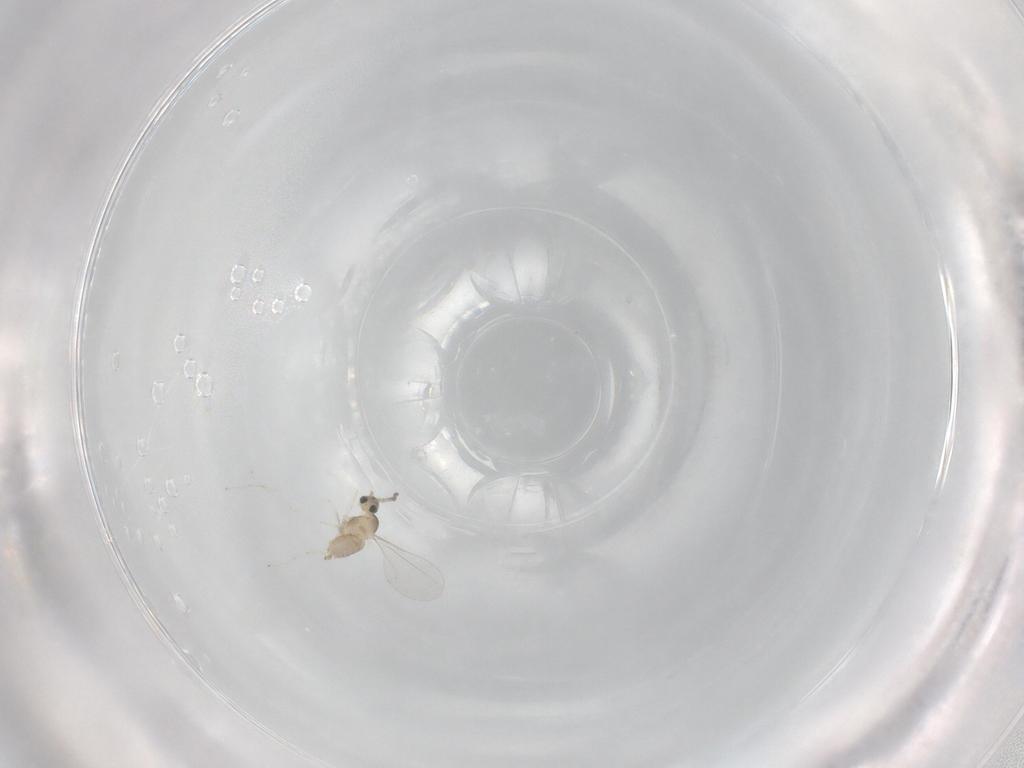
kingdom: Animalia
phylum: Arthropoda
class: Insecta
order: Diptera
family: Cecidomyiidae
